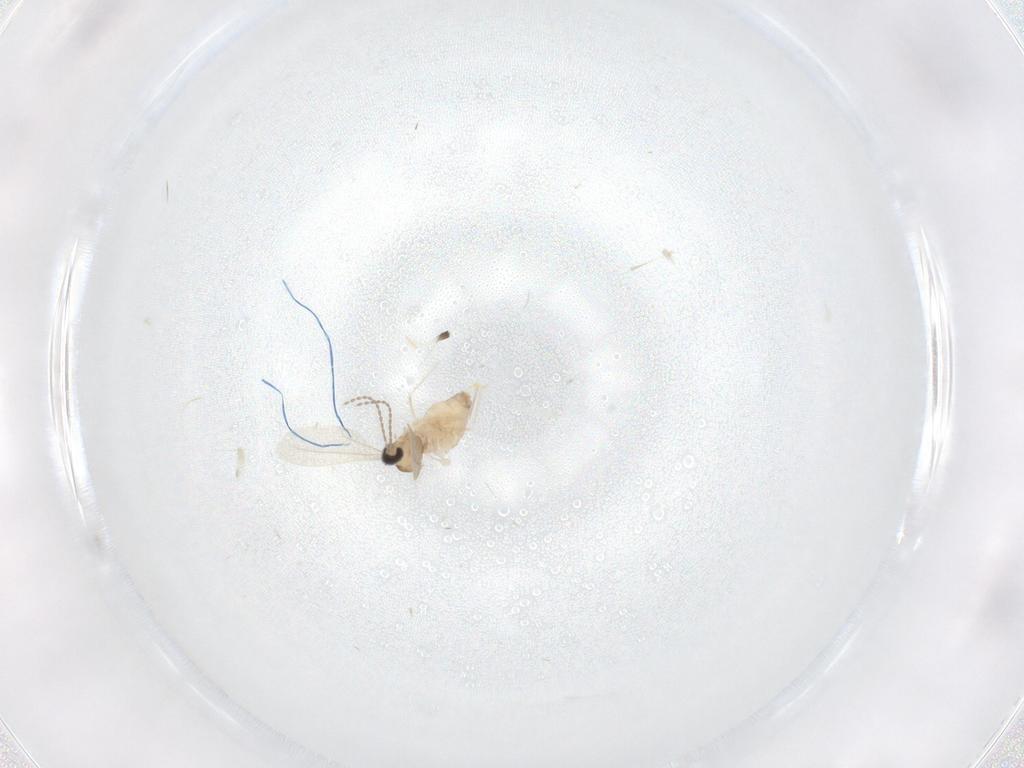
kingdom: Animalia
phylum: Arthropoda
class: Insecta
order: Diptera
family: Cecidomyiidae
